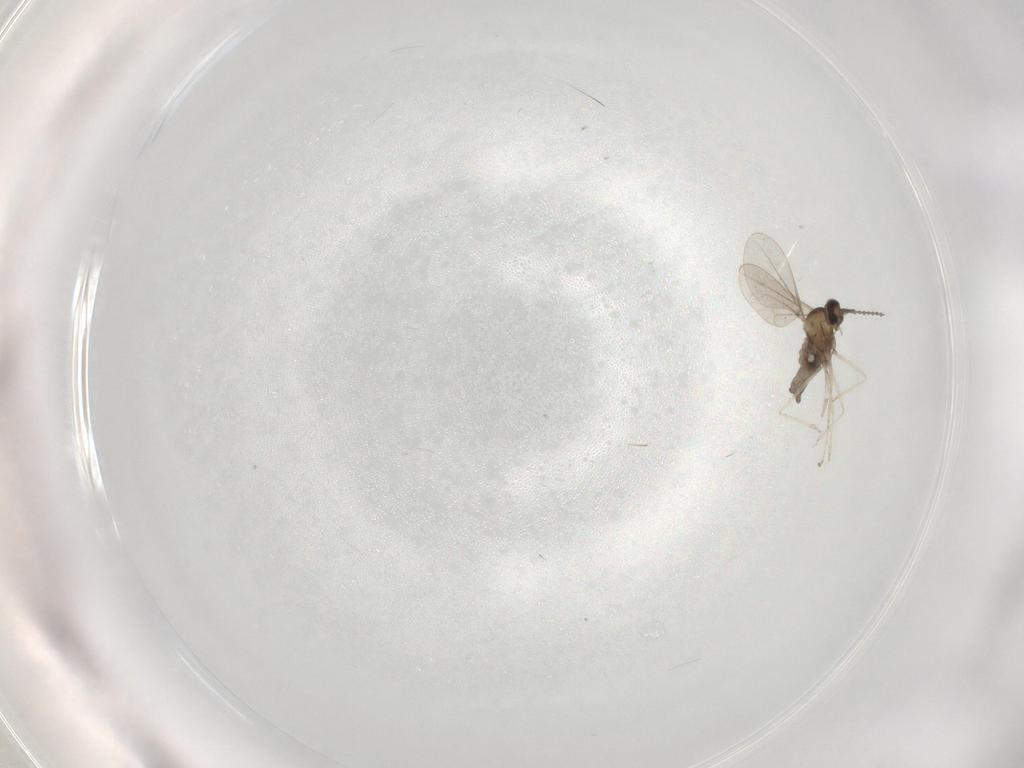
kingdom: Animalia
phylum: Arthropoda
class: Insecta
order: Diptera
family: Cecidomyiidae
